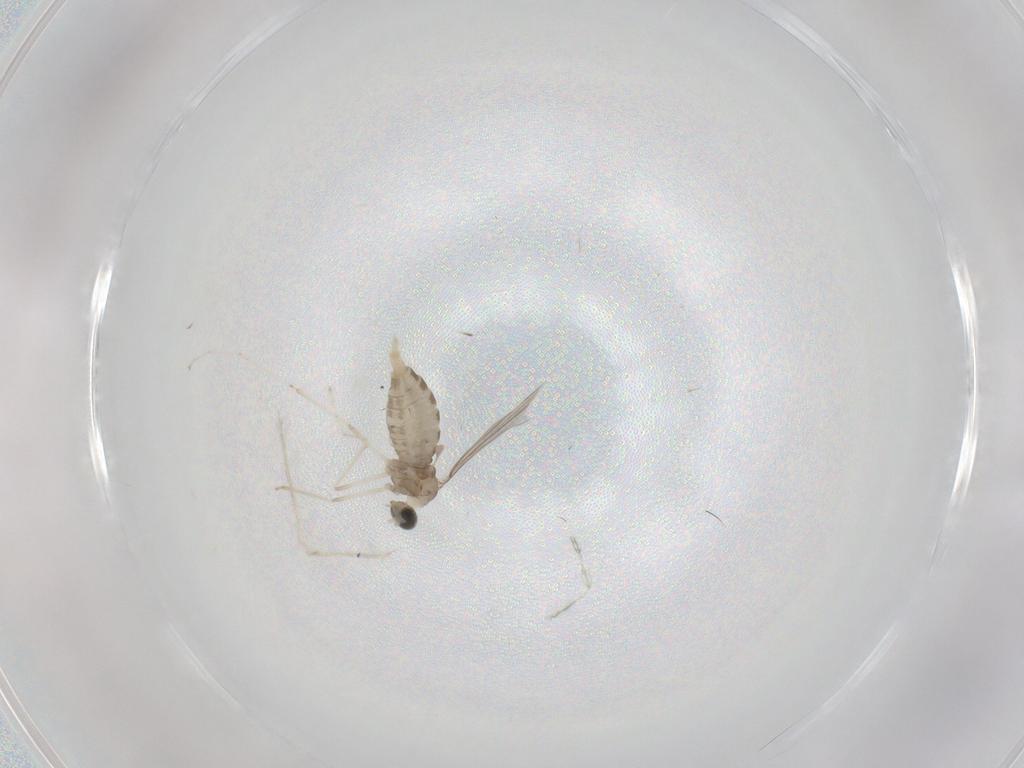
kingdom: Animalia
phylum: Arthropoda
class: Insecta
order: Diptera
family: Cecidomyiidae
